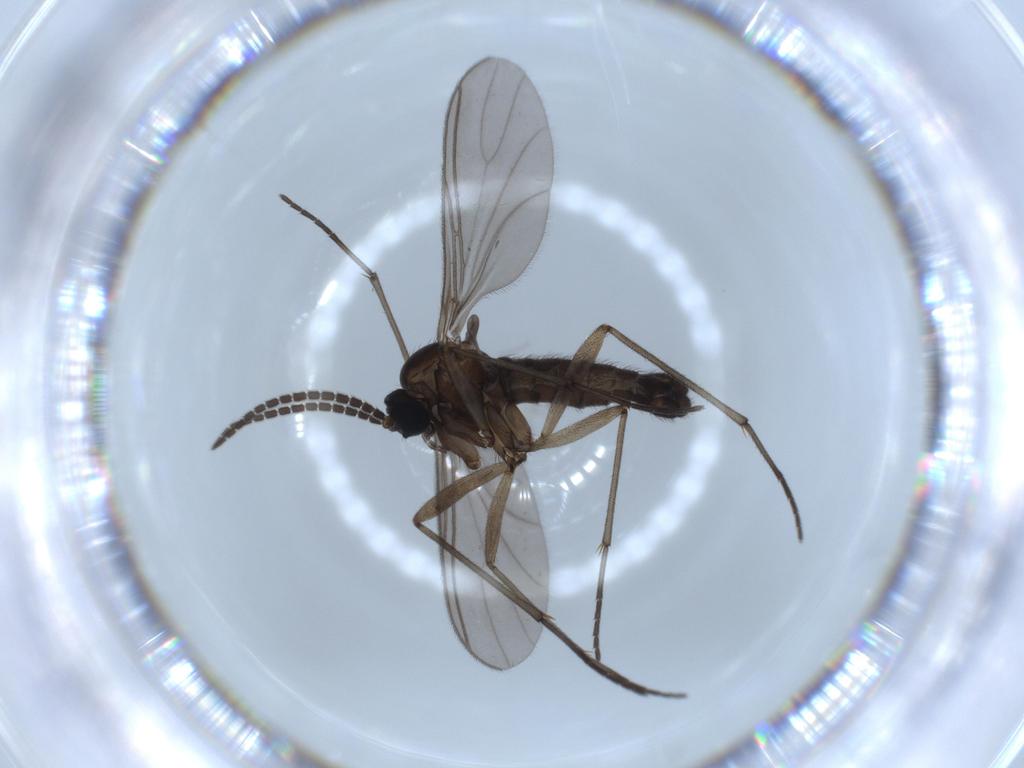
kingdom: Animalia
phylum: Arthropoda
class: Insecta
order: Diptera
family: Sciaridae
